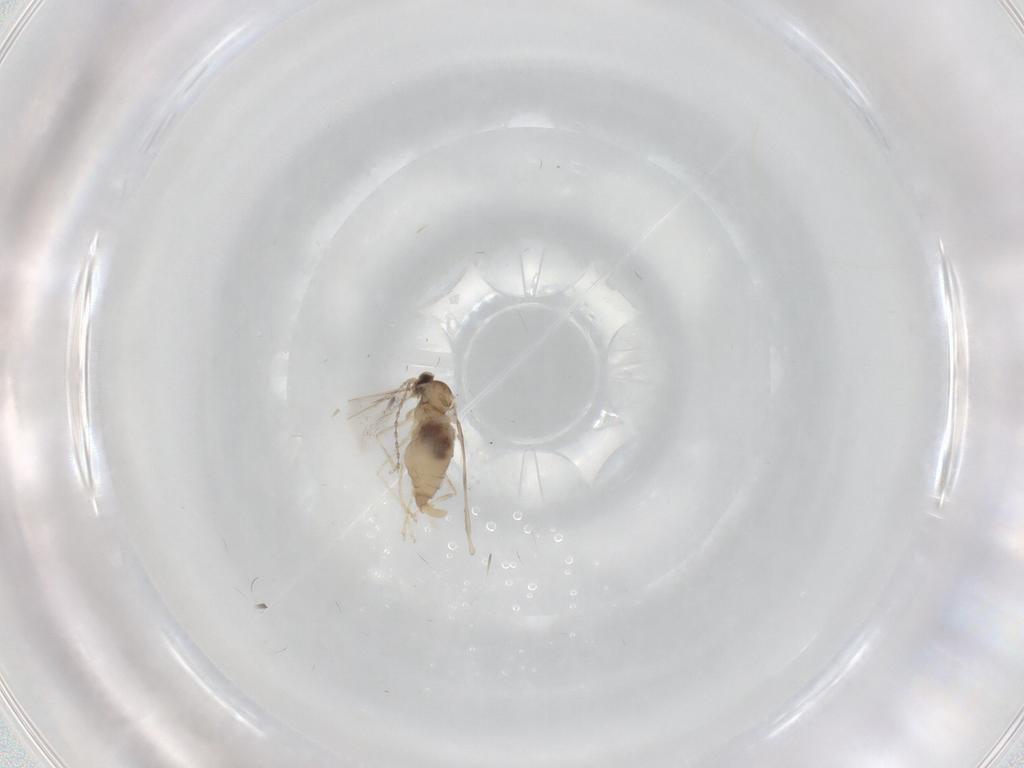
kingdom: Animalia
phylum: Arthropoda
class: Insecta
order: Diptera
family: Cecidomyiidae
